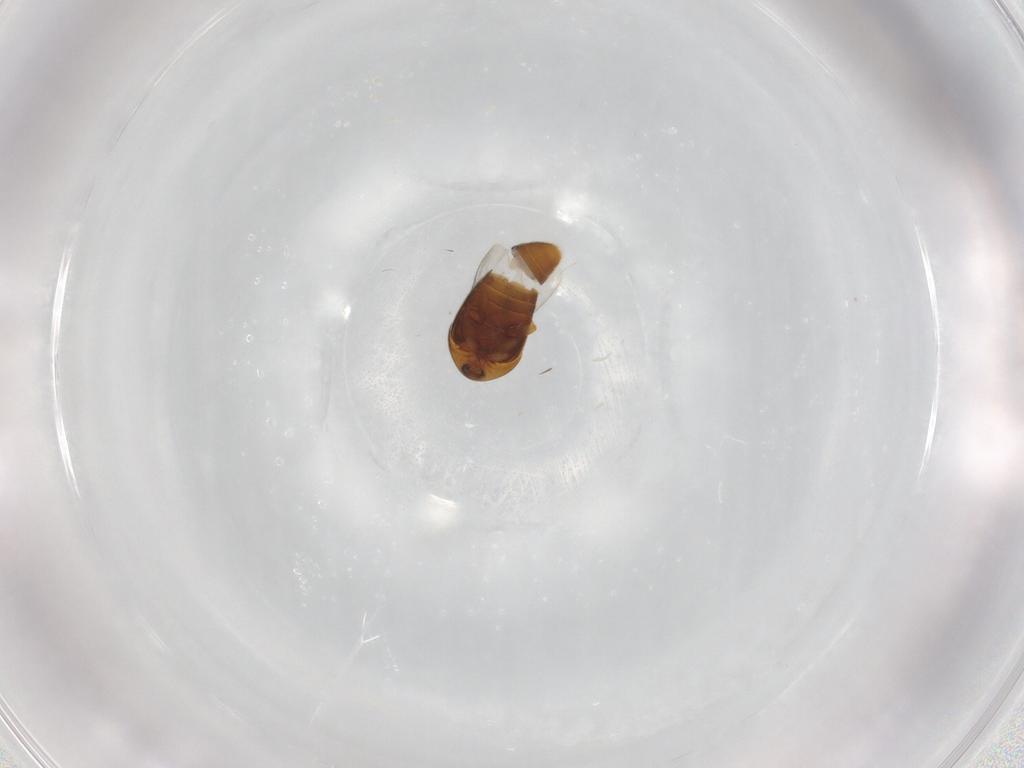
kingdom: Animalia
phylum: Arthropoda
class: Insecta
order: Coleoptera
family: Corylophidae
